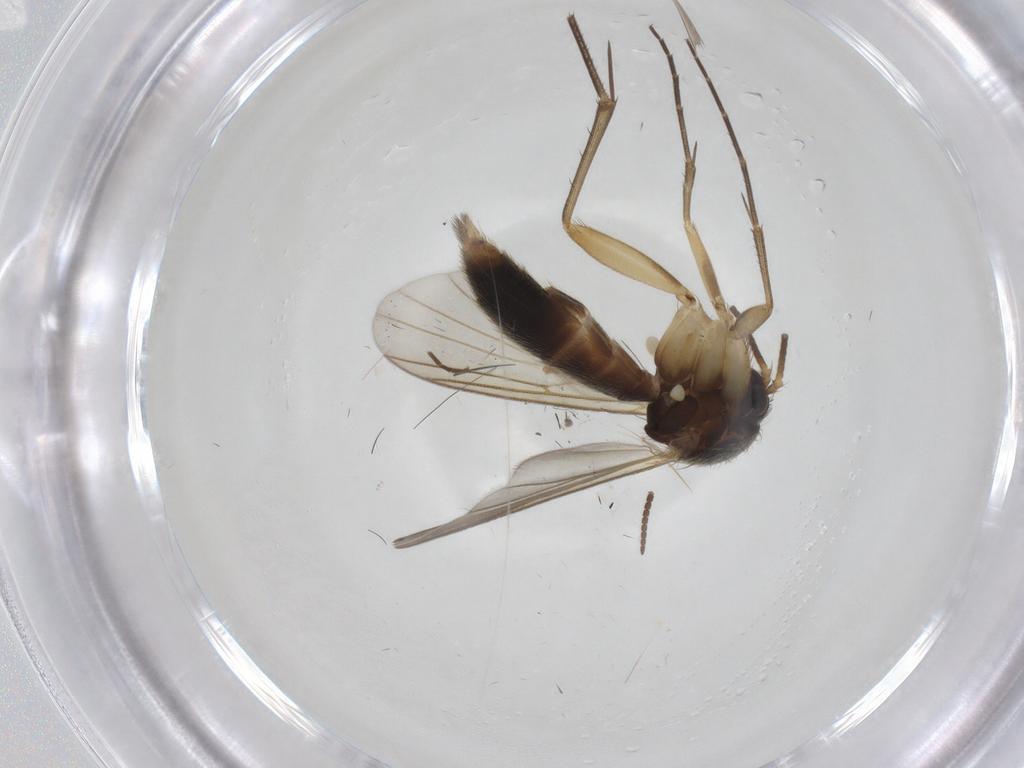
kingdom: Animalia
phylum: Arthropoda
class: Insecta
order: Diptera
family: Mycetophilidae
